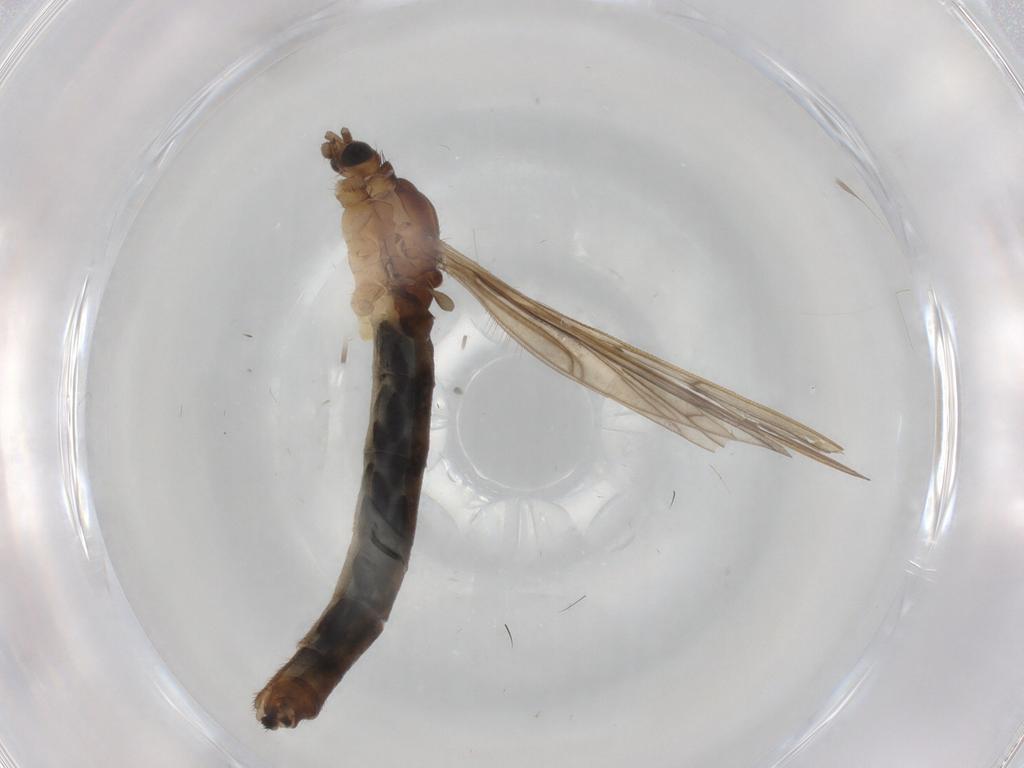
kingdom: Animalia
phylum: Arthropoda
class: Insecta
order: Diptera
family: Limoniidae
